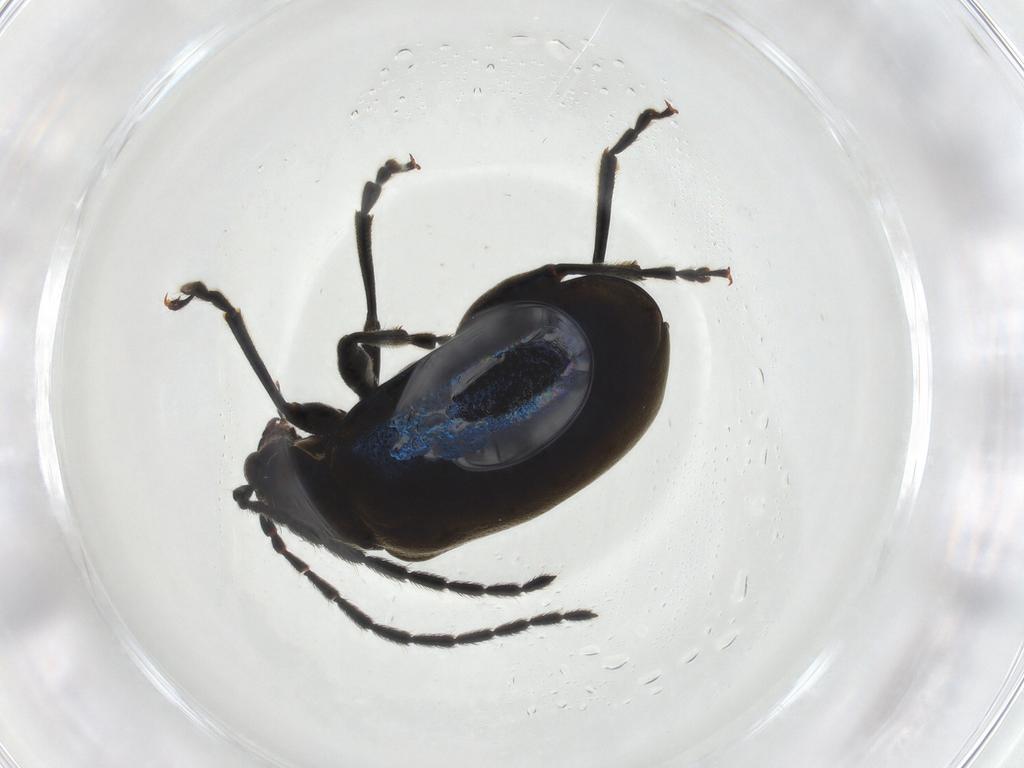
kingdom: Animalia
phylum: Arthropoda
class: Insecta
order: Coleoptera
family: Chrysomelidae
